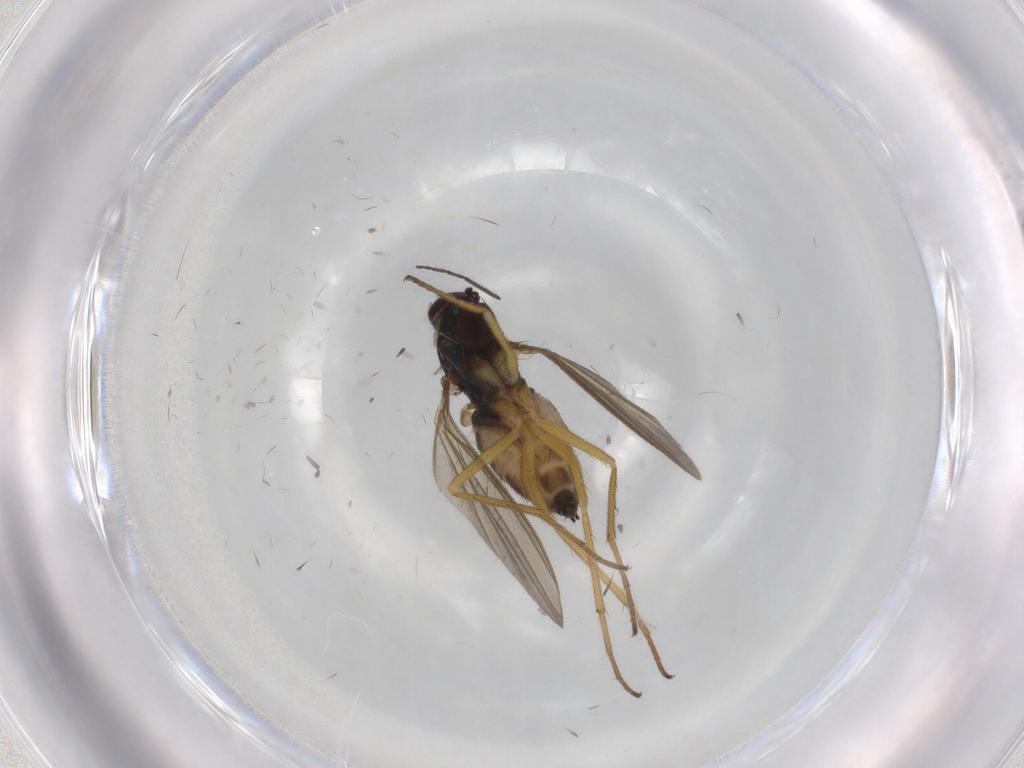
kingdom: Animalia
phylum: Arthropoda
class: Insecta
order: Diptera
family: Dolichopodidae
